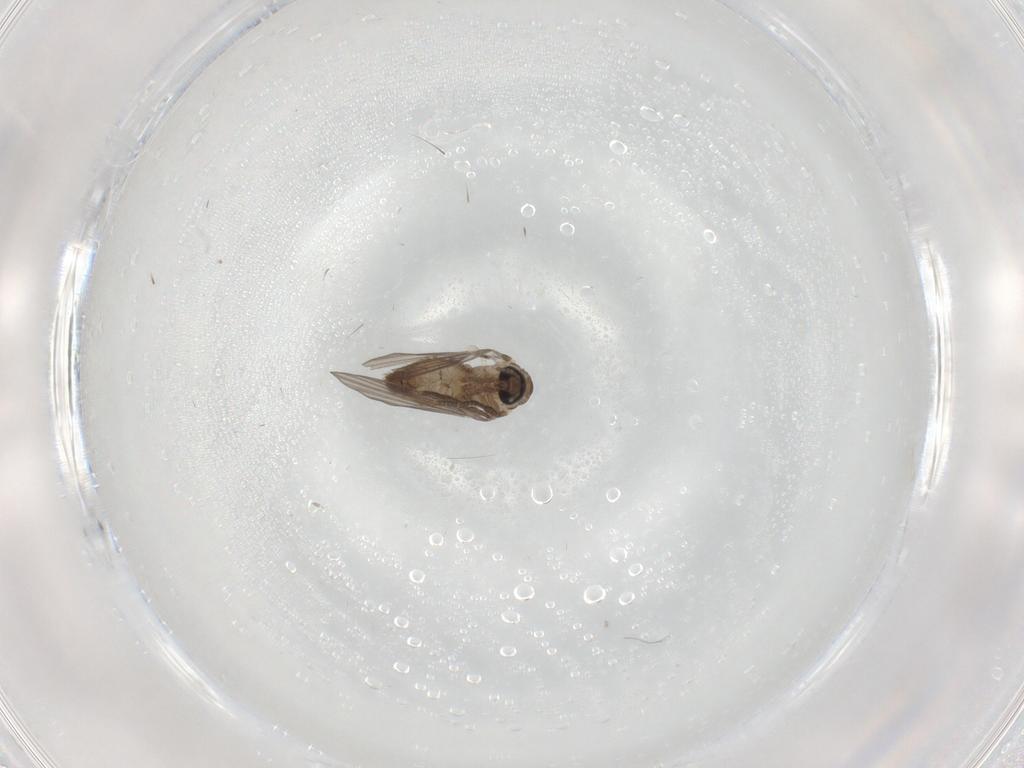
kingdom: Animalia
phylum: Arthropoda
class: Insecta
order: Diptera
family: Psychodidae
